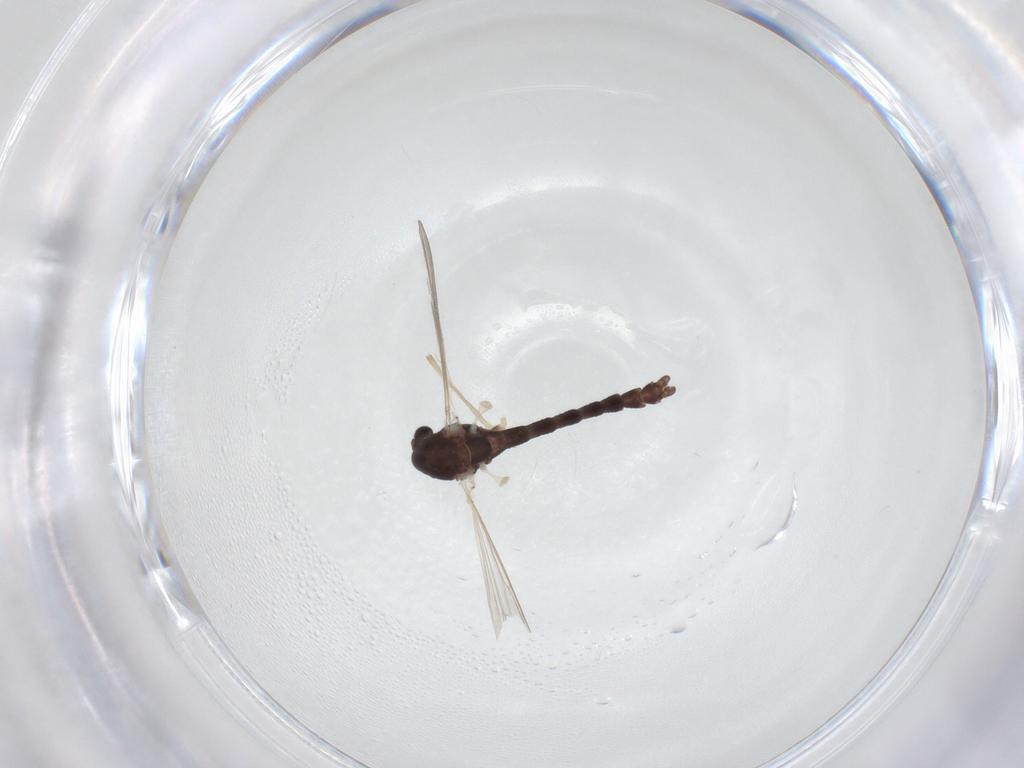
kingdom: Animalia
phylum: Arthropoda
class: Insecta
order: Diptera
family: Chironomidae
